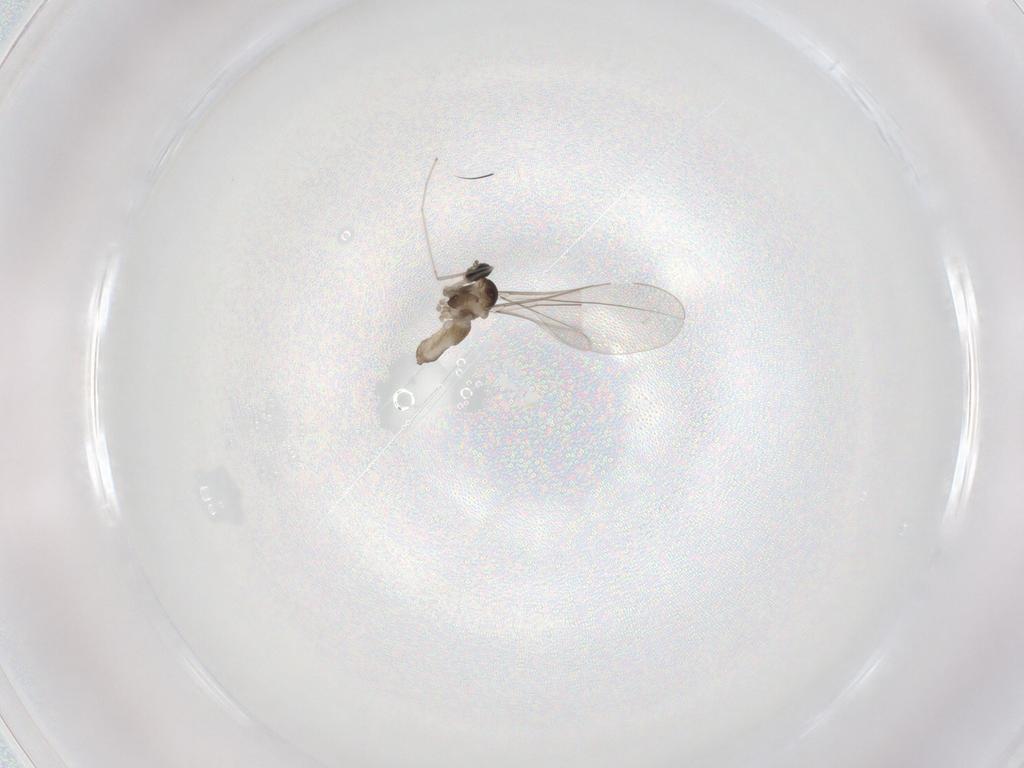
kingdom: Animalia
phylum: Arthropoda
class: Insecta
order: Diptera
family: Cecidomyiidae
